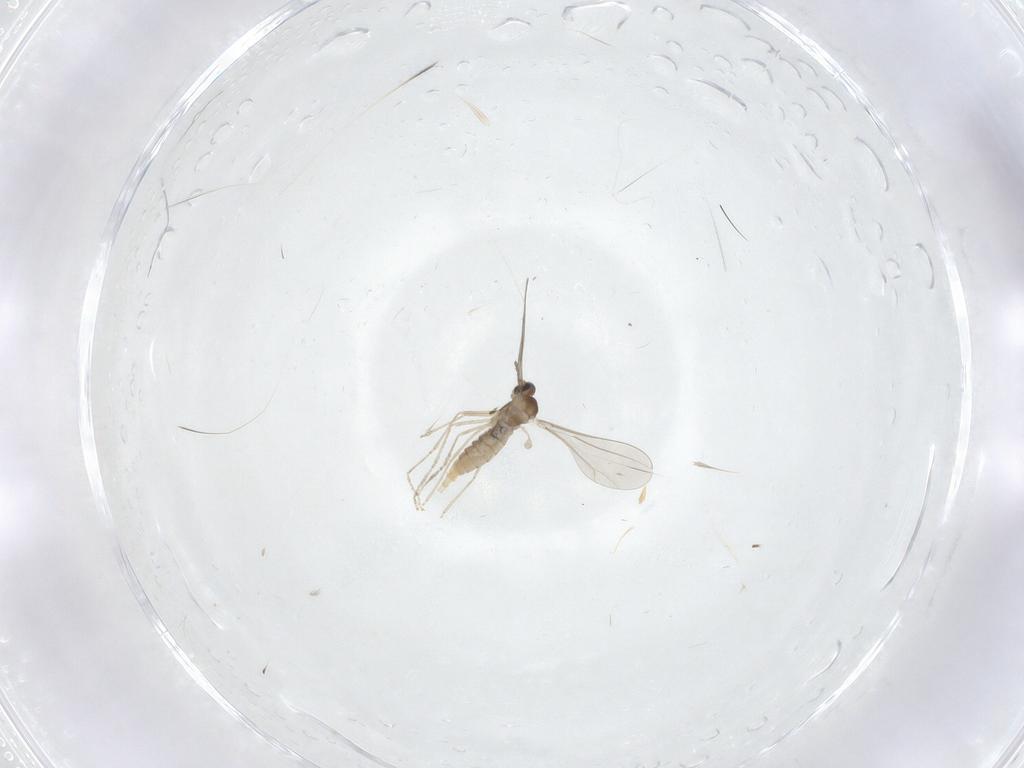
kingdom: Animalia
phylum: Arthropoda
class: Insecta
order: Diptera
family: Cecidomyiidae
